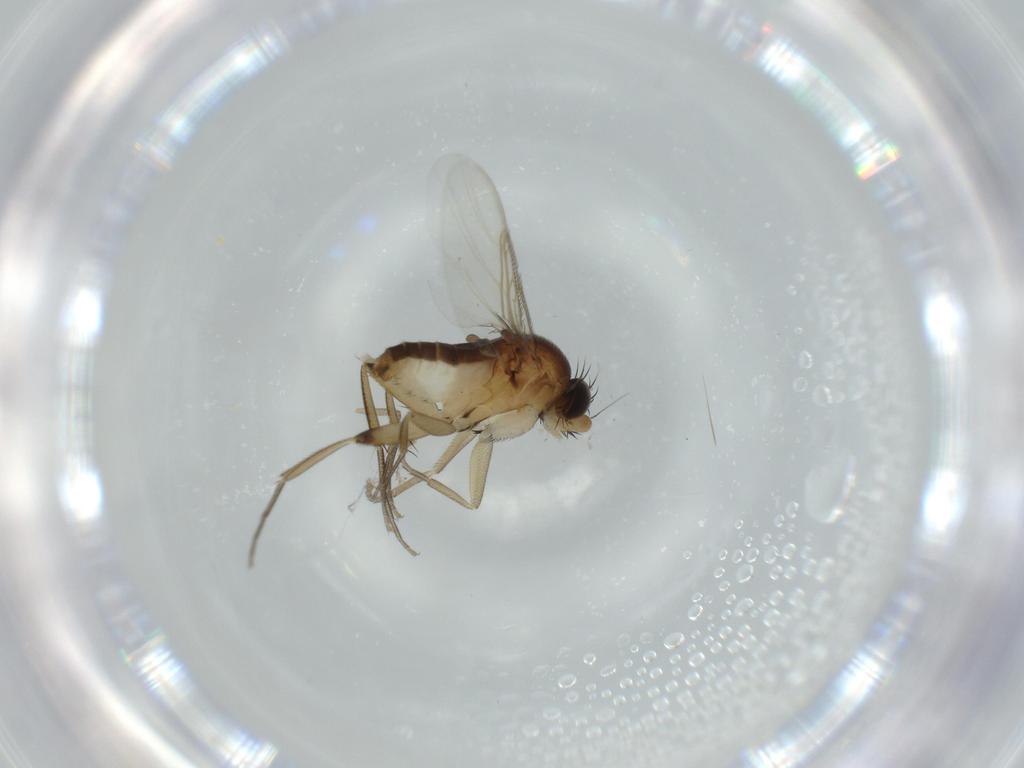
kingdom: Animalia
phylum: Arthropoda
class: Insecta
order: Diptera
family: Phoridae
